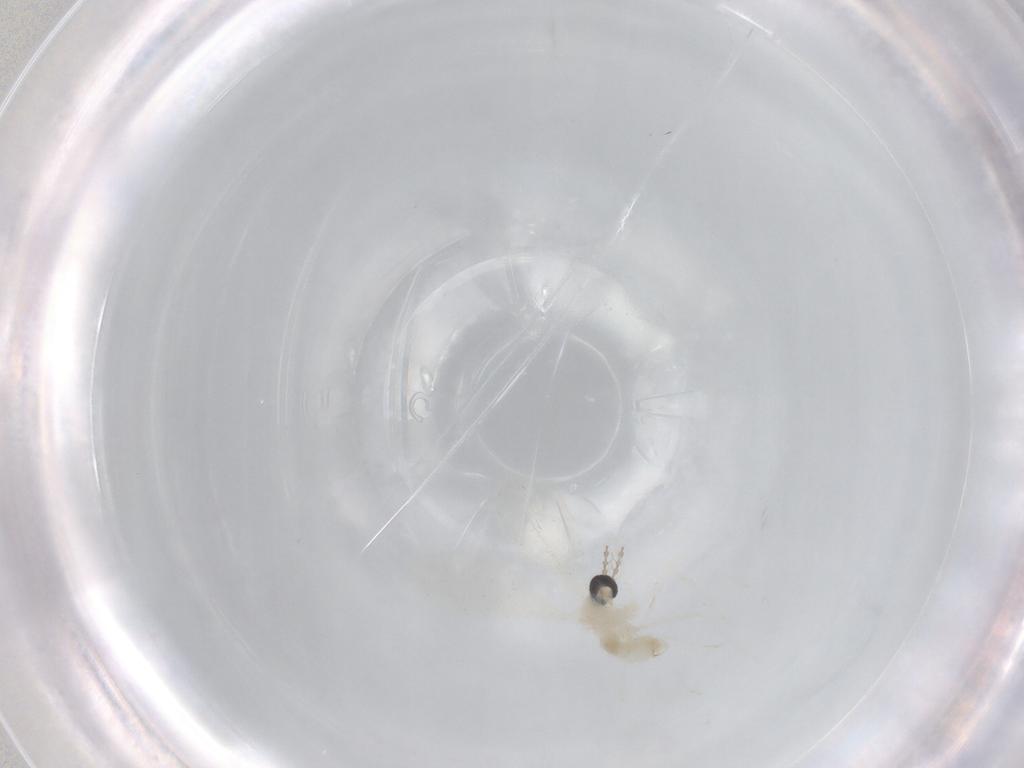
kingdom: Animalia
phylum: Arthropoda
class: Insecta
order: Diptera
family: Cecidomyiidae
